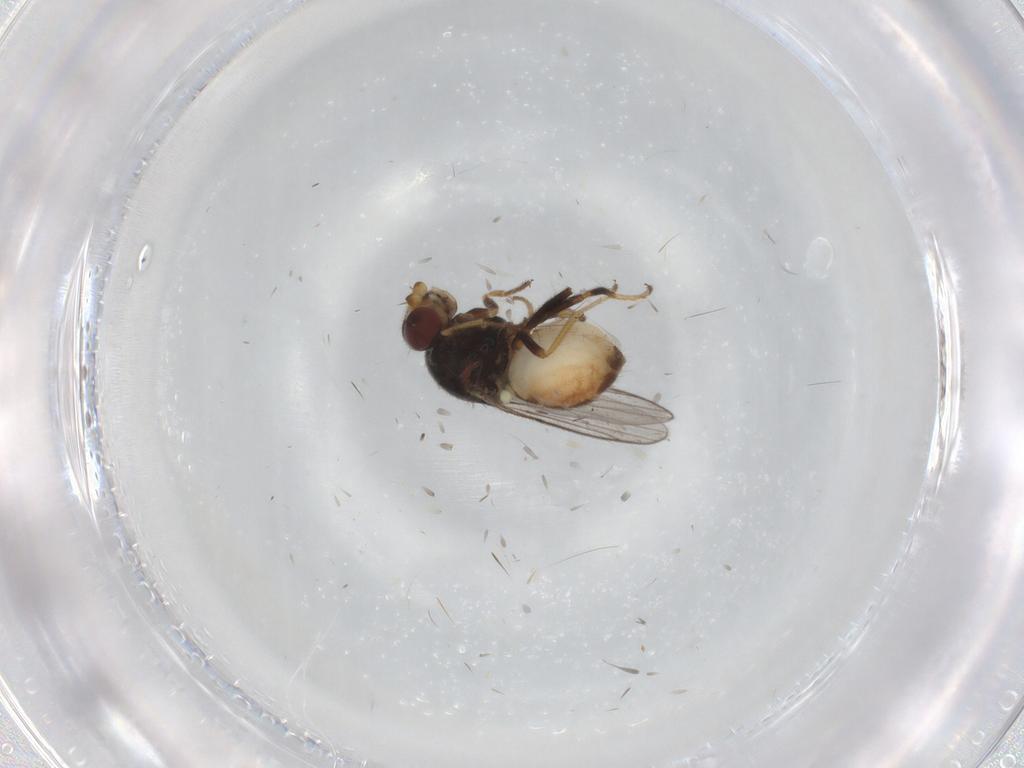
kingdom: Animalia
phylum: Arthropoda
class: Insecta
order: Diptera
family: Chloropidae
